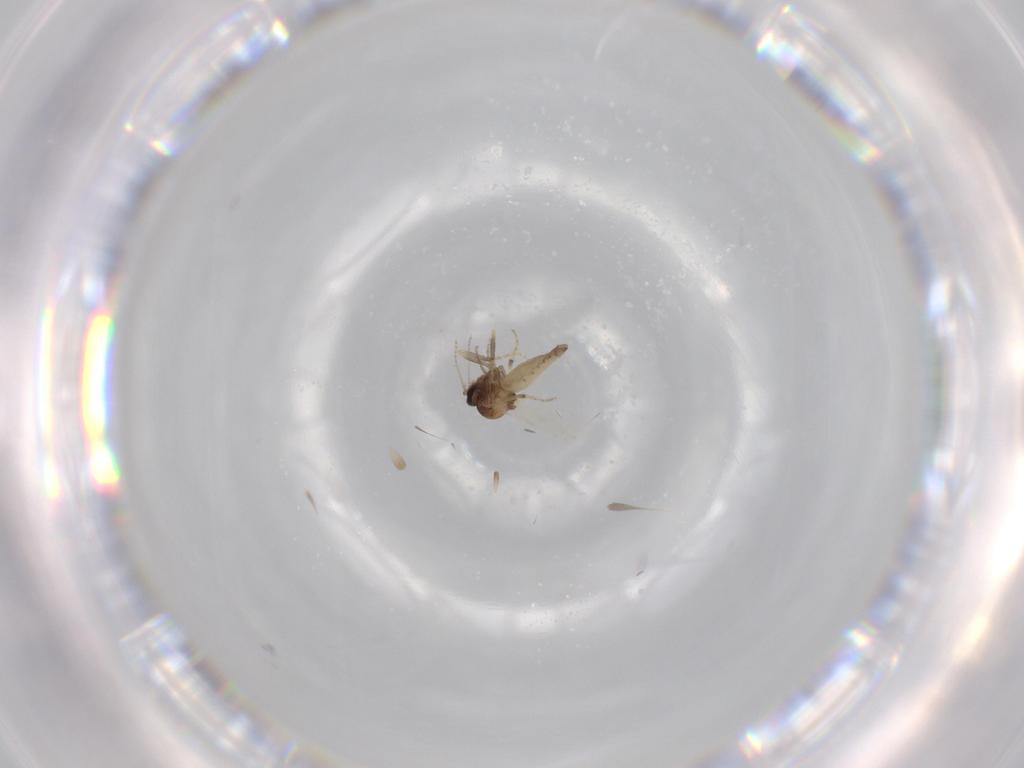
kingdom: Animalia
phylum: Arthropoda
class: Insecta
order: Diptera
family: Ceratopogonidae
